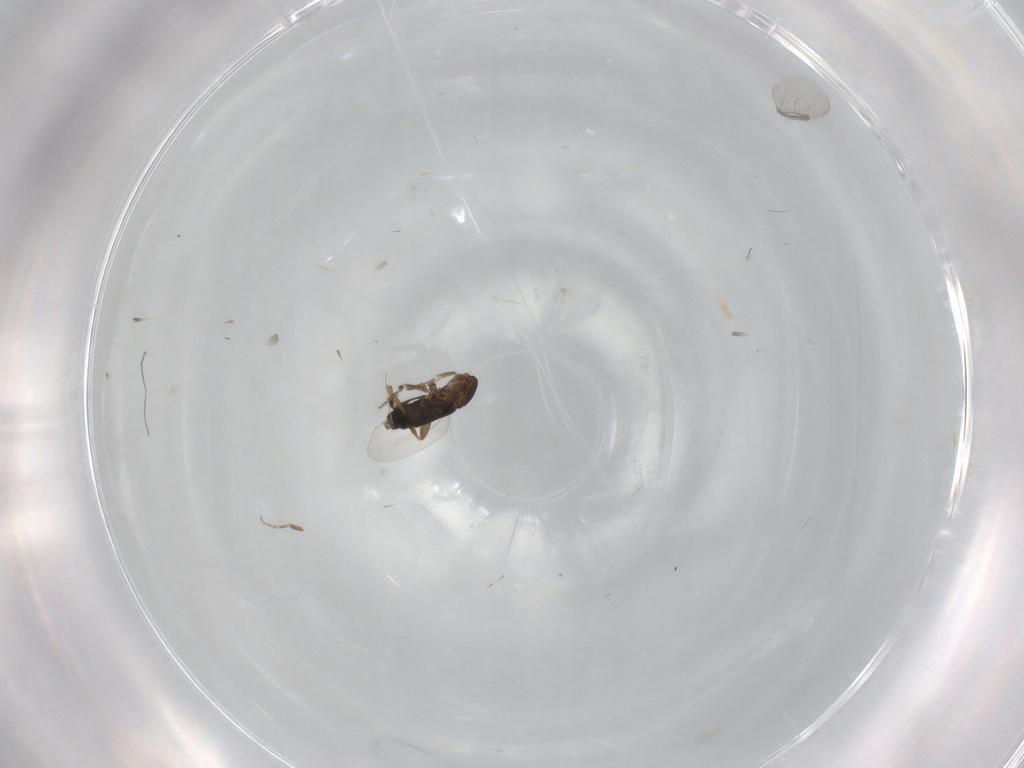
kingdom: Animalia
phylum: Arthropoda
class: Insecta
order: Diptera
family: Phoridae
